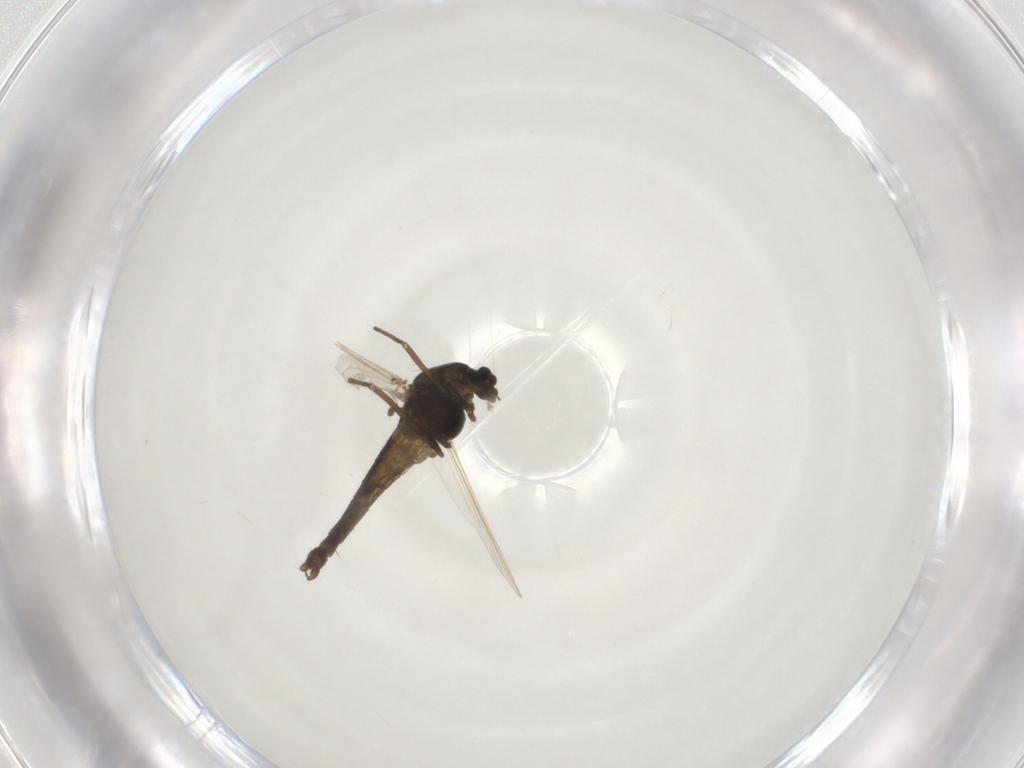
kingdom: Animalia
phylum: Arthropoda
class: Insecta
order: Diptera
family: Chironomidae
